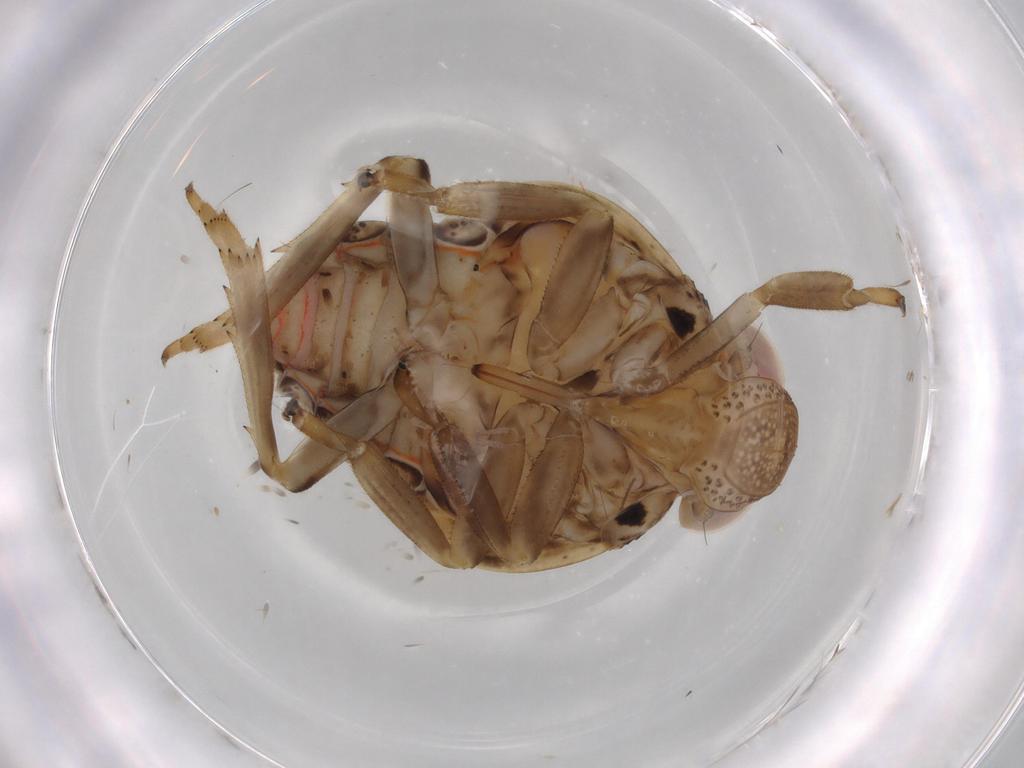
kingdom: Animalia
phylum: Arthropoda
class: Insecta
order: Hemiptera
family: Issidae
